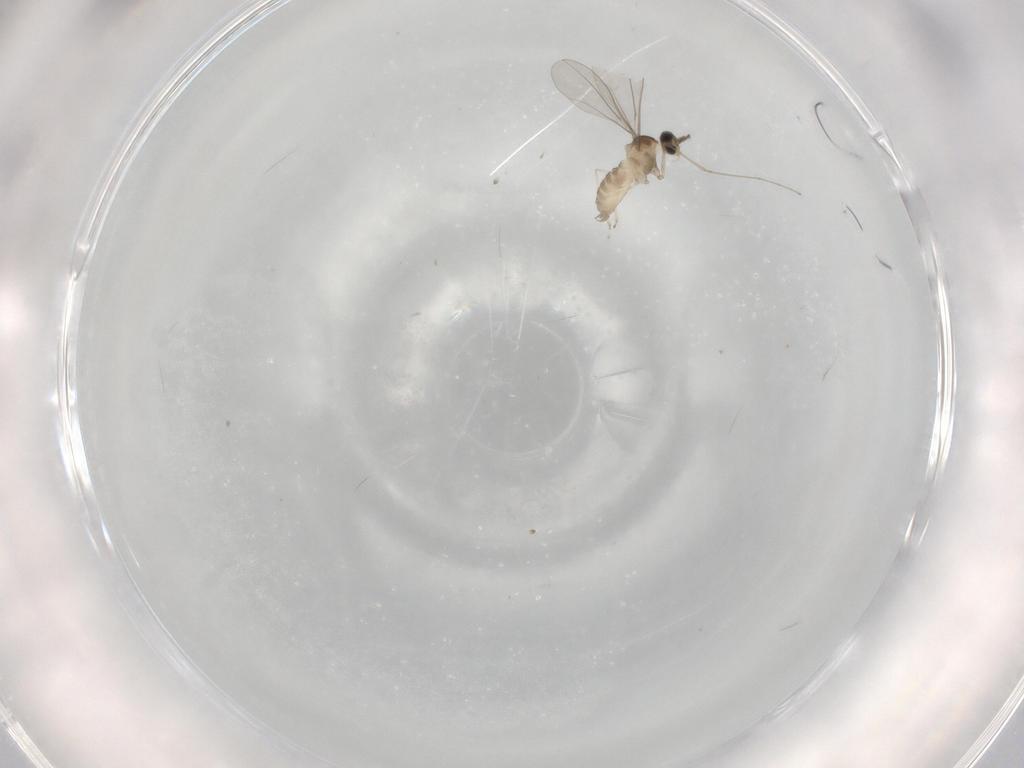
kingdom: Animalia
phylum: Arthropoda
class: Insecta
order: Diptera
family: Cecidomyiidae
